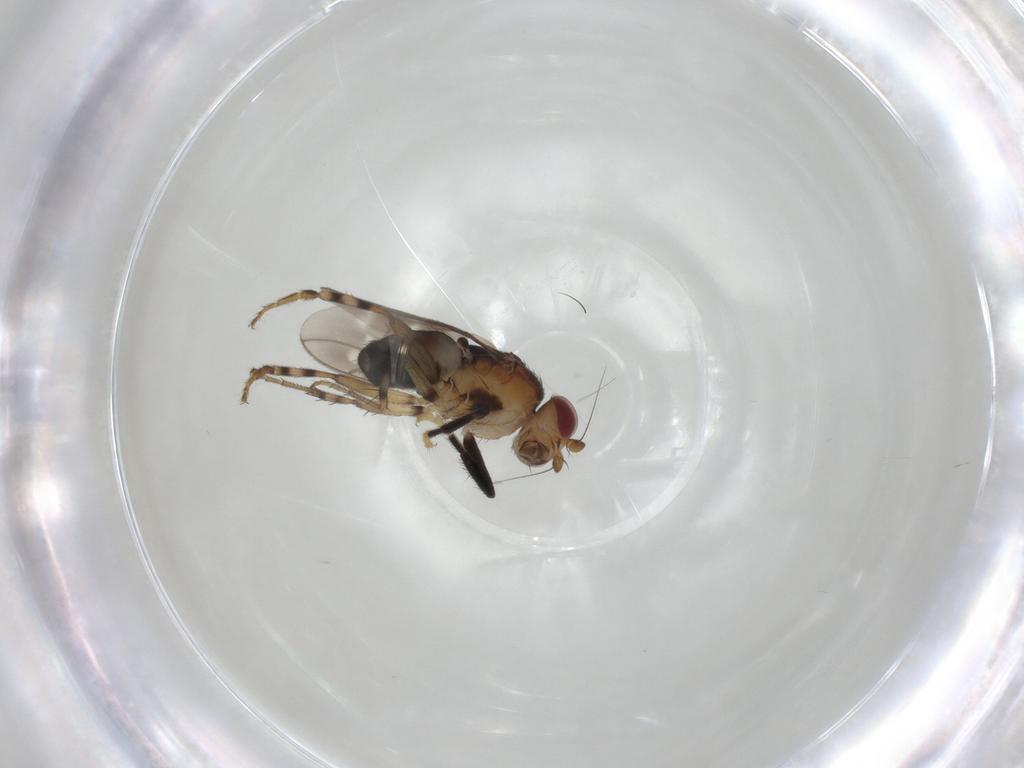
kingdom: Animalia
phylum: Arthropoda
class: Insecta
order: Diptera
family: Sphaeroceridae
